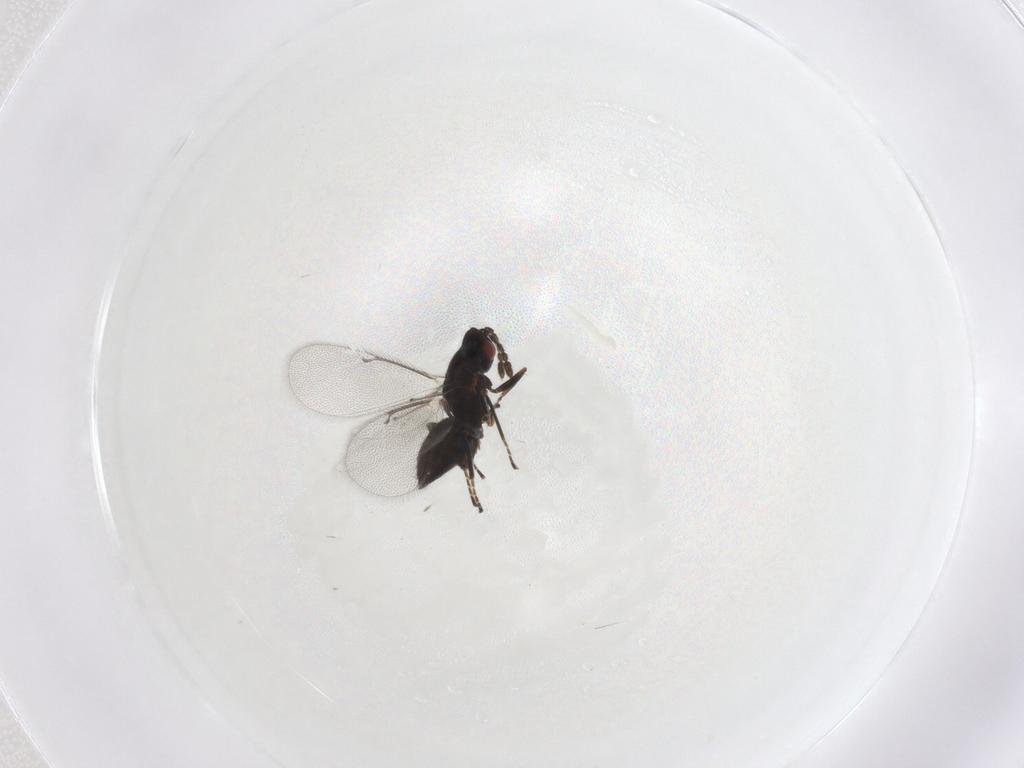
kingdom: Animalia
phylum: Arthropoda
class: Insecta
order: Hymenoptera
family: Eulophidae
